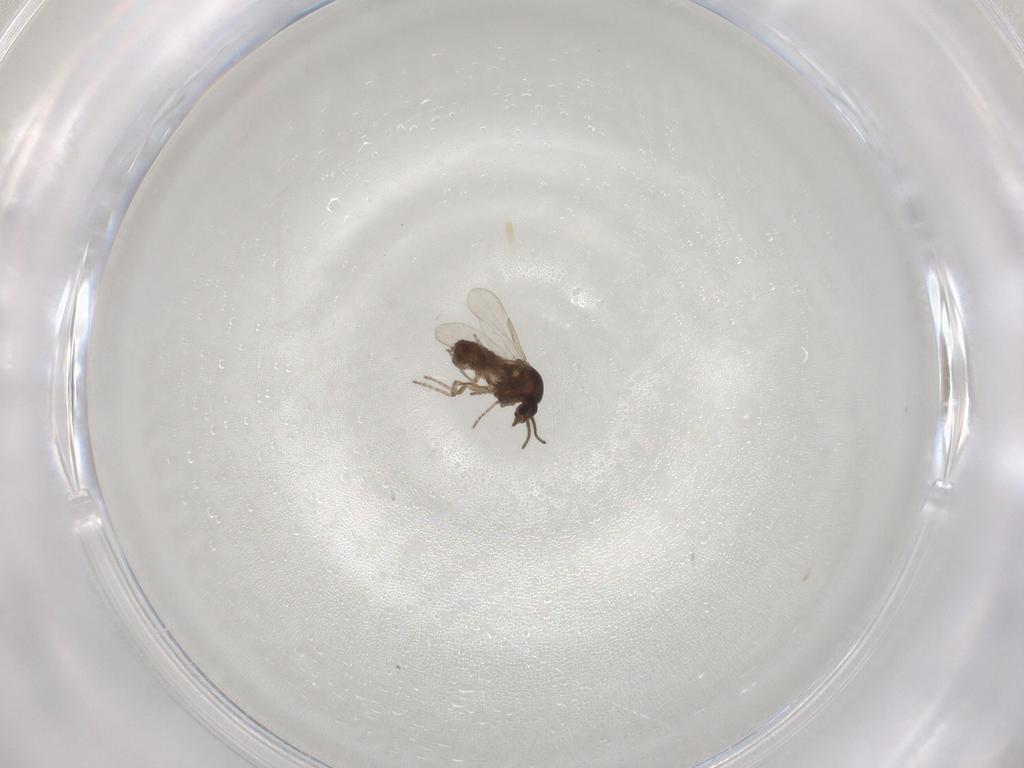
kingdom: Animalia
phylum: Arthropoda
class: Insecta
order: Diptera
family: Ceratopogonidae
